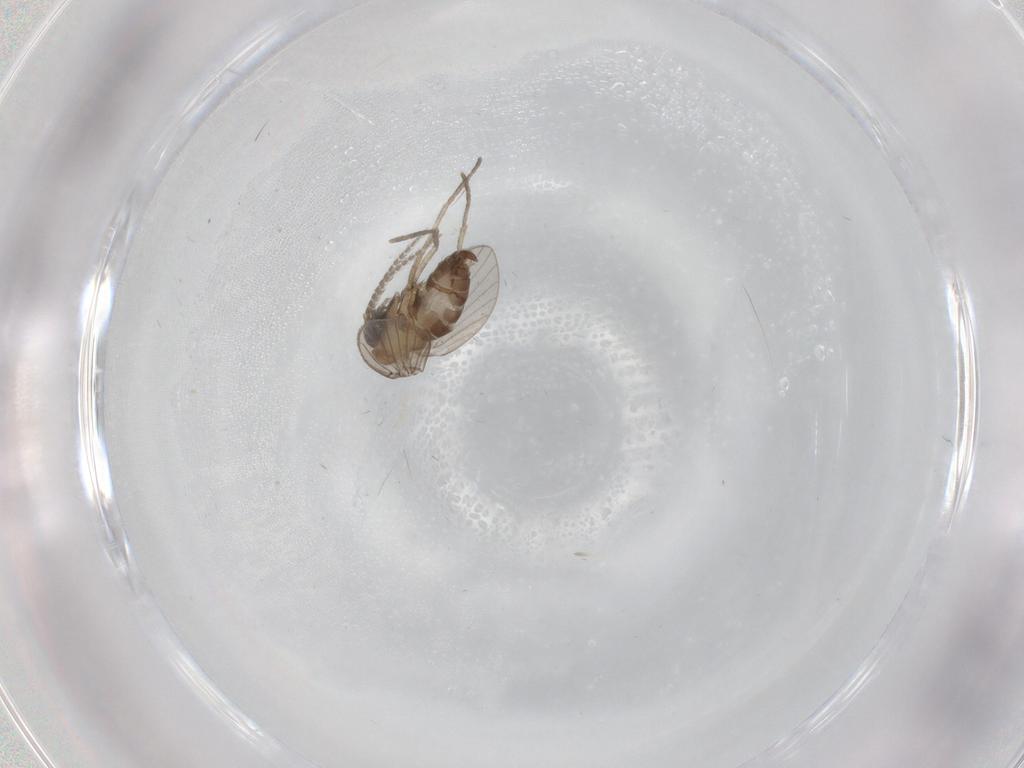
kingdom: Animalia
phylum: Arthropoda
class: Insecta
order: Diptera
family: Psychodidae
